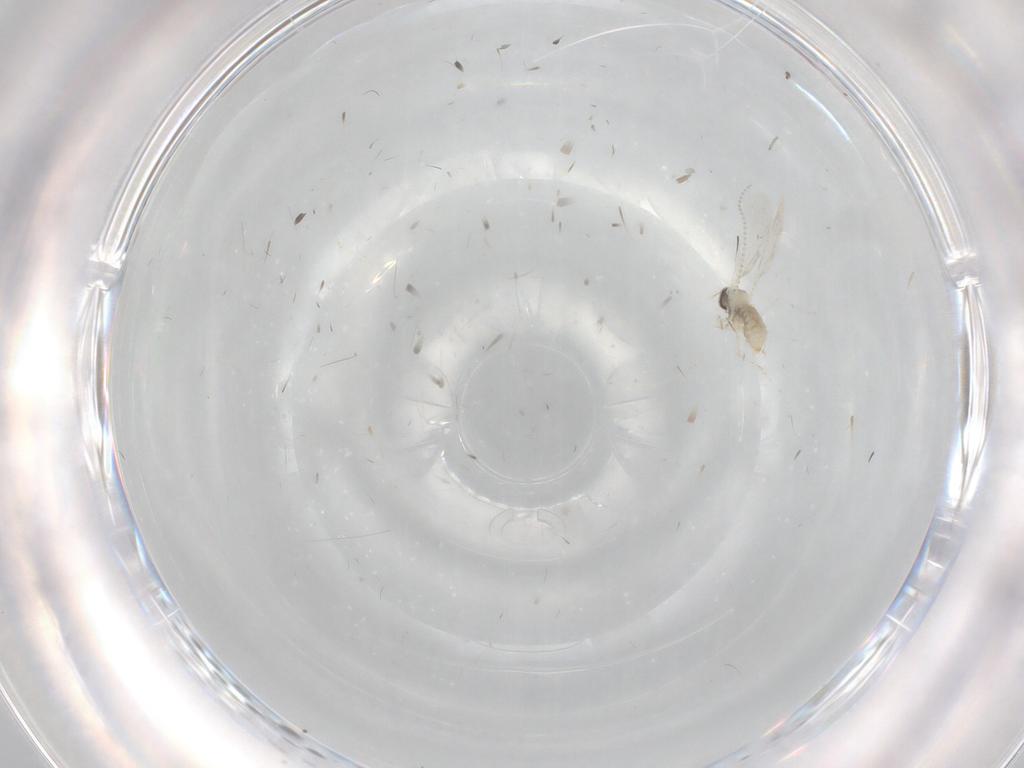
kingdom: Animalia
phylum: Arthropoda
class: Insecta
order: Diptera
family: Cecidomyiidae
